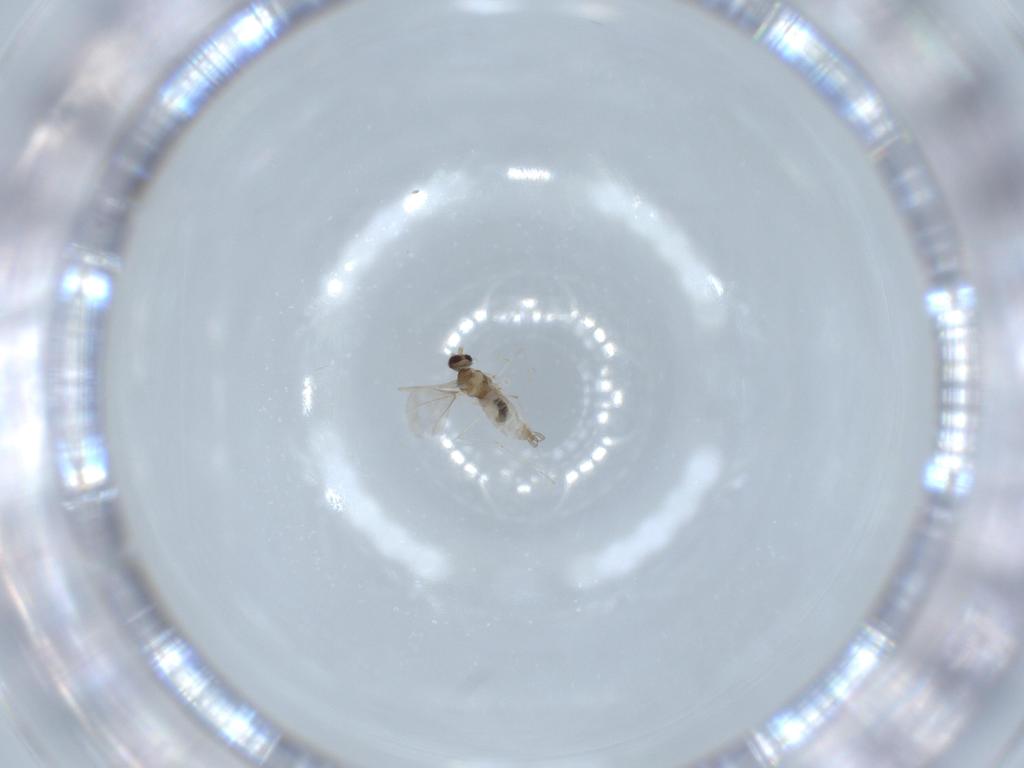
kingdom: Animalia
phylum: Arthropoda
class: Insecta
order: Diptera
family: Cecidomyiidae
